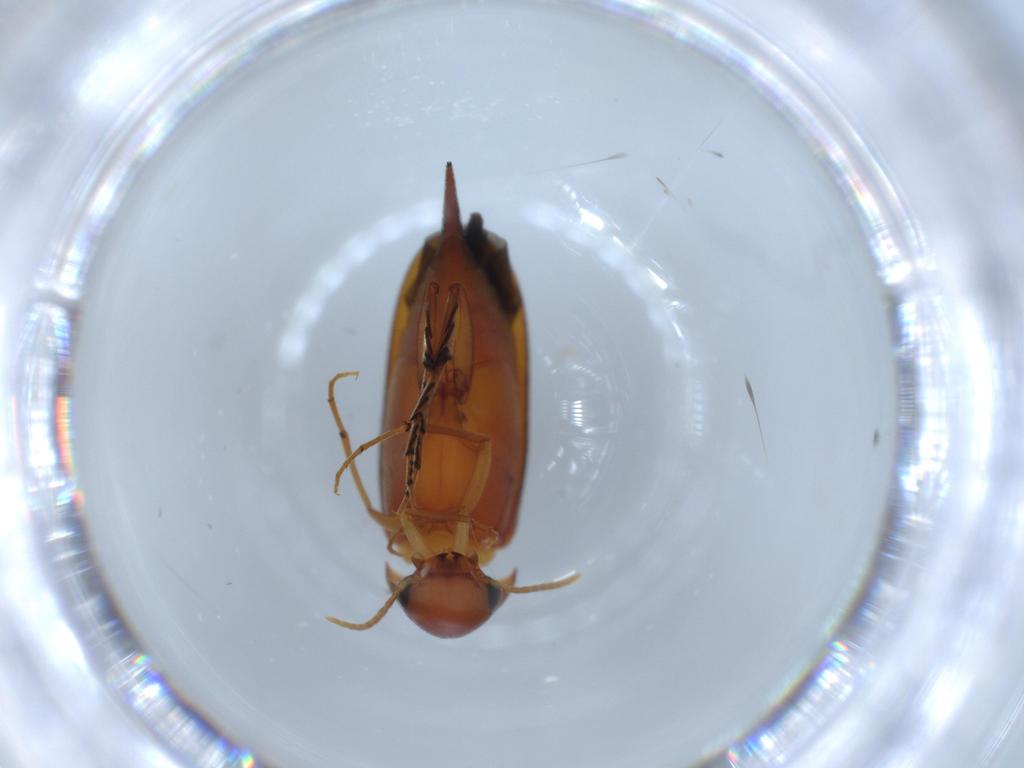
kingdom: Animalia
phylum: Arthropoda
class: Insecta
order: Coleoptera
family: Mordellidae
